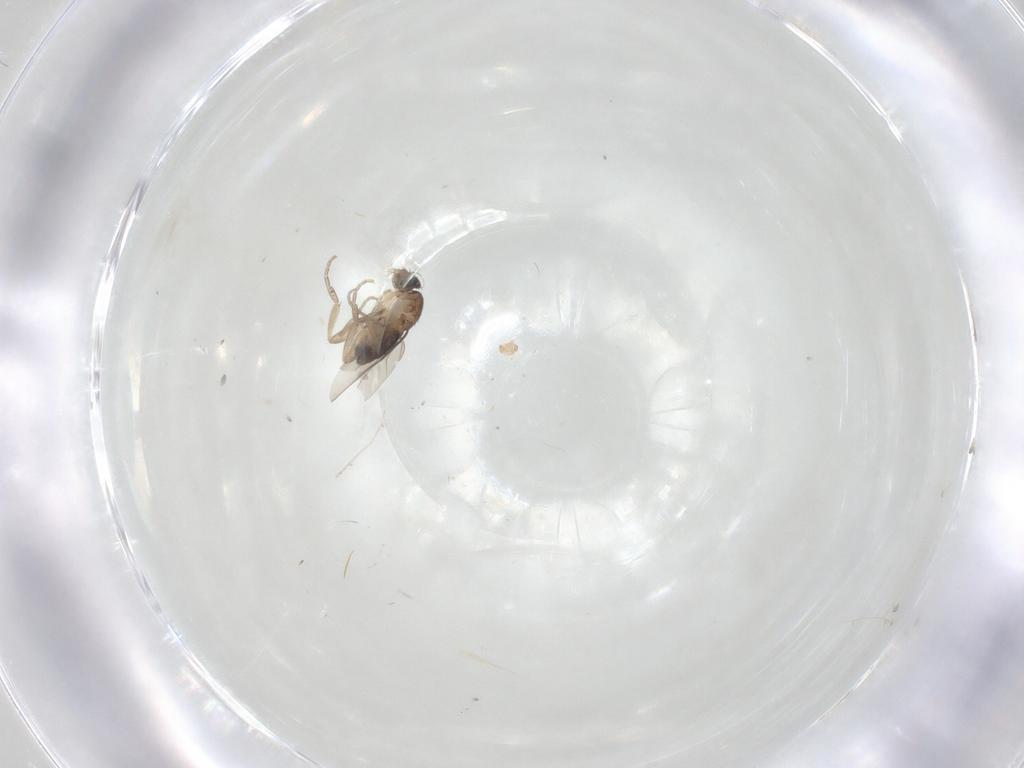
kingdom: Animalia
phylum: Arthropoda
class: Insecta
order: Diptera
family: Phoridae
